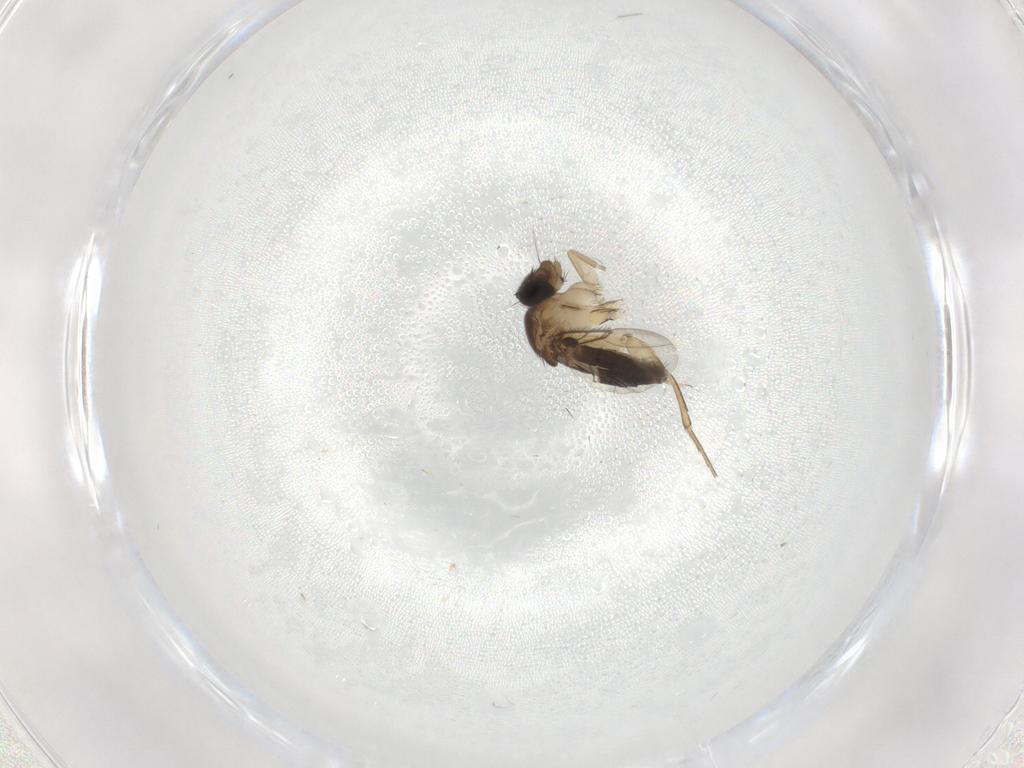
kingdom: Animalia
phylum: Arthropoda
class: Insecta
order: Diptera
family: Phoridae
